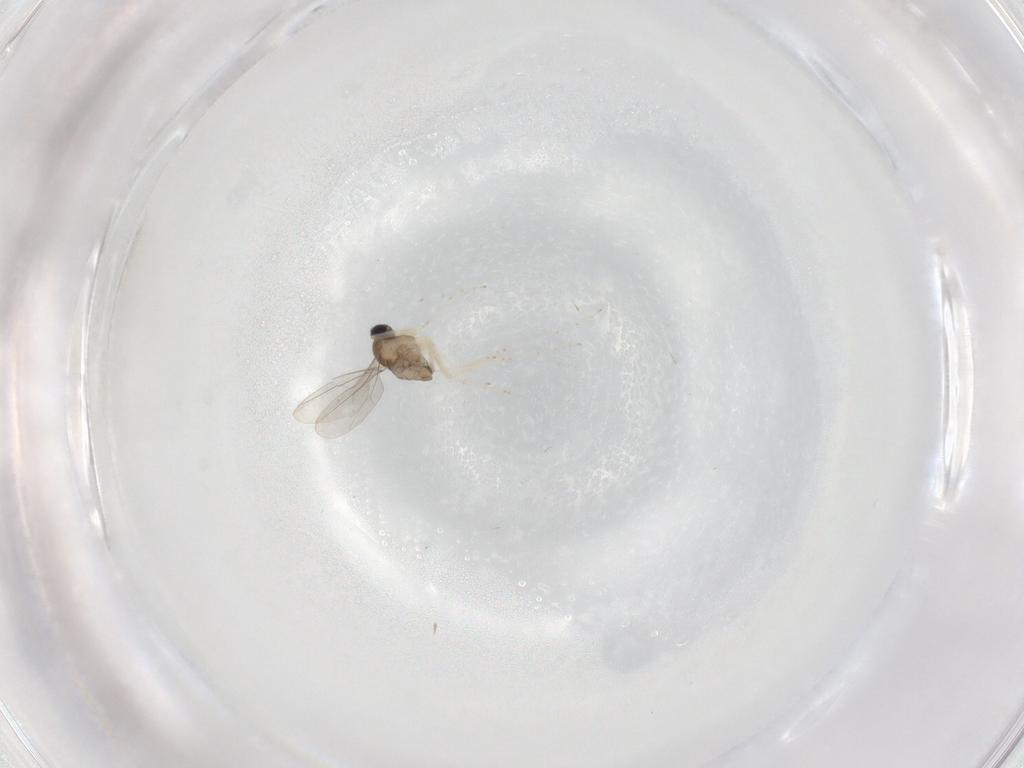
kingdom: Animalia
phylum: Arthropoda
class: Insecta
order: Diptera
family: Cecidomyiidae
